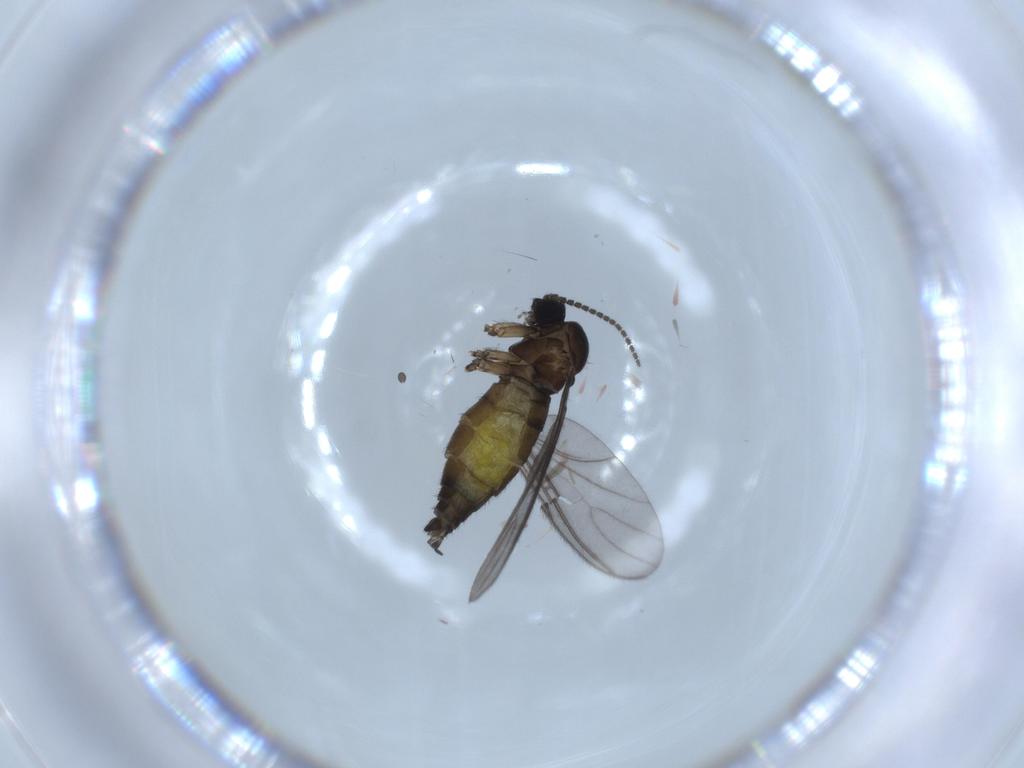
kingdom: Animalia
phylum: Arthropoda
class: Insecta
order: Diptera
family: Sciaridae
